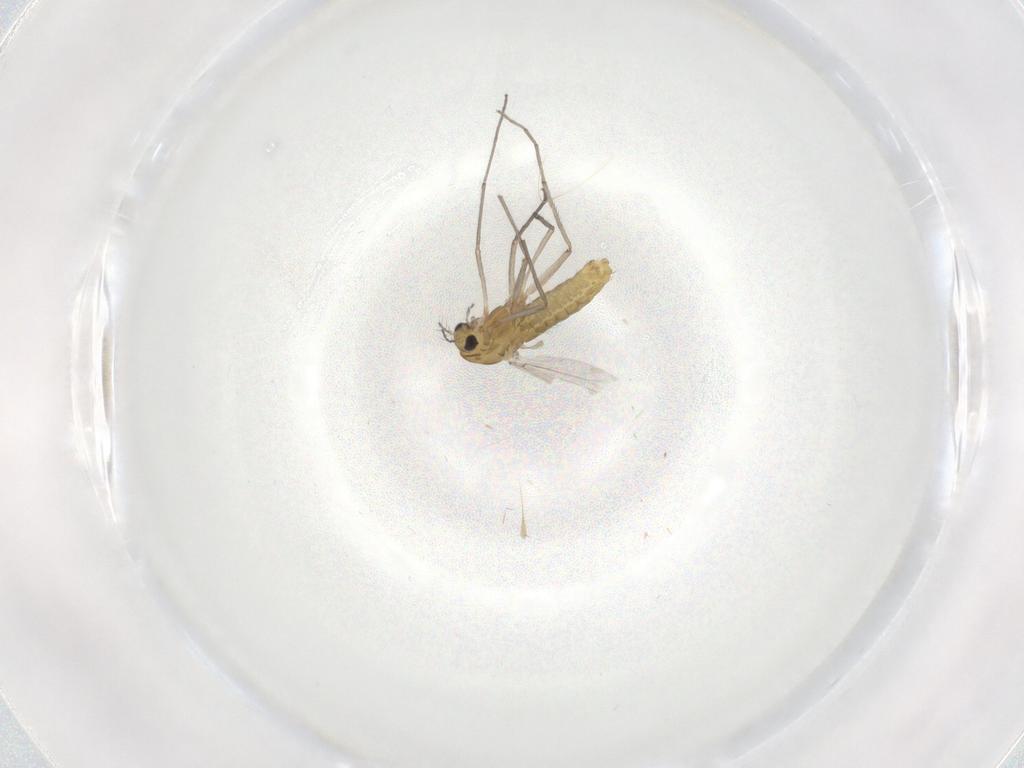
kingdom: Animalia
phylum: Arthropoda
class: Insecta
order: Diptera
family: Chironomidae
